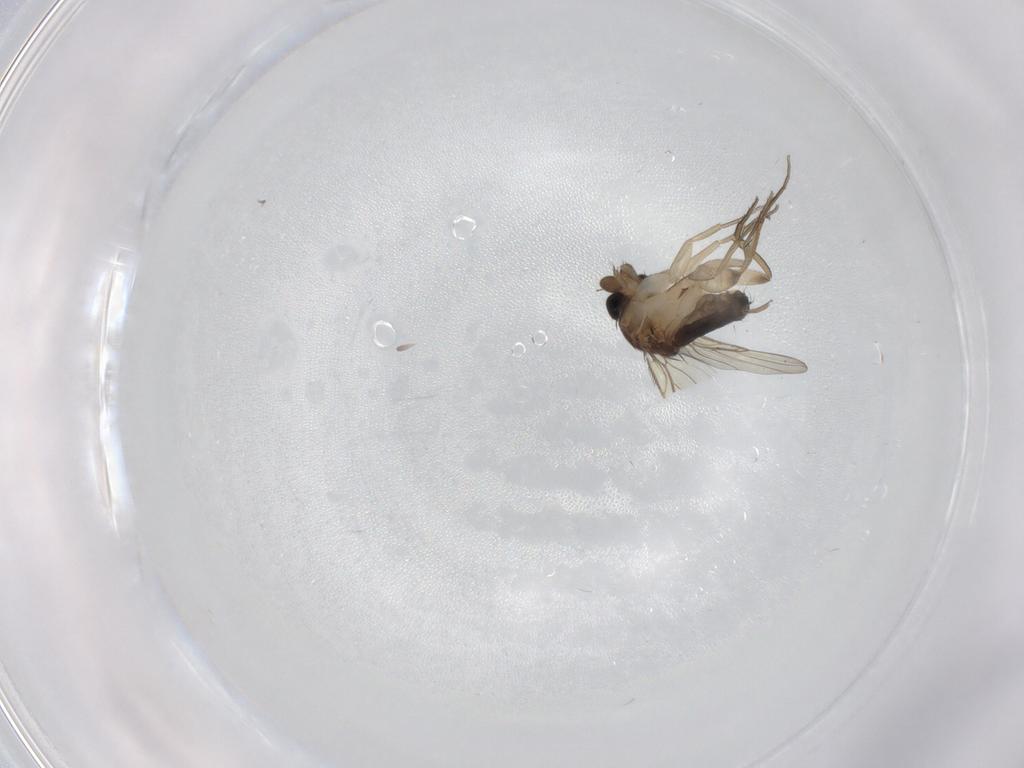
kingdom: Animalia
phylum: Arthropoda
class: Insecta
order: Diptera
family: Phoridae
